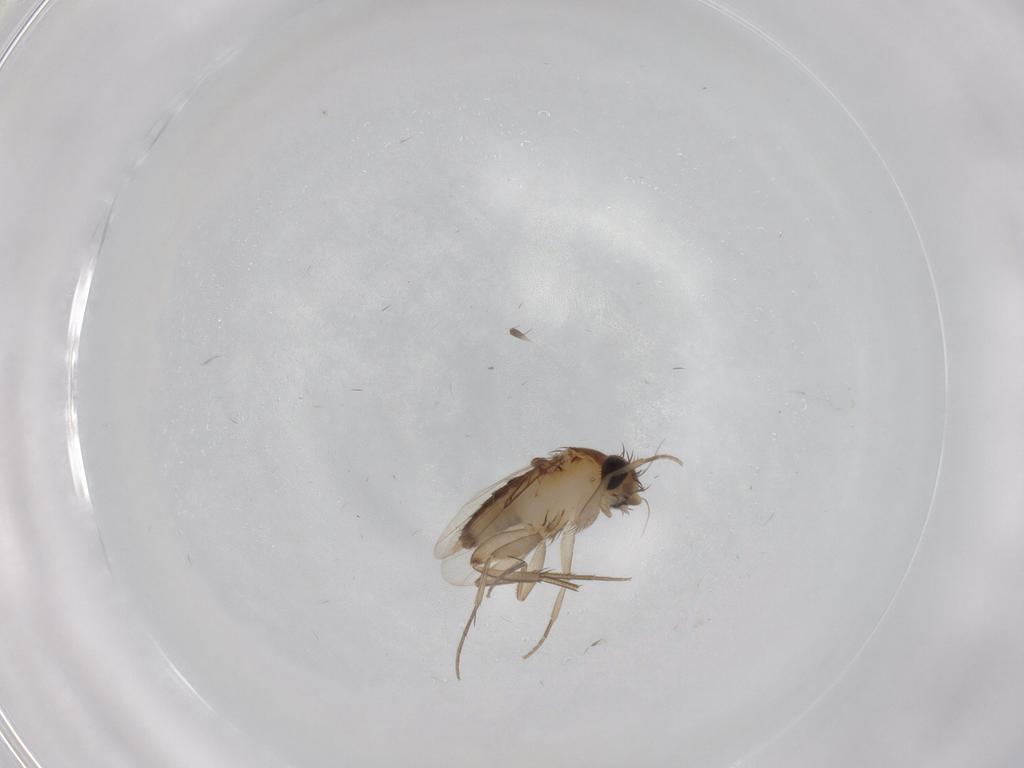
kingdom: Animalia
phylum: Arthropoda
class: Insecta
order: Diptera
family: Phoridae
